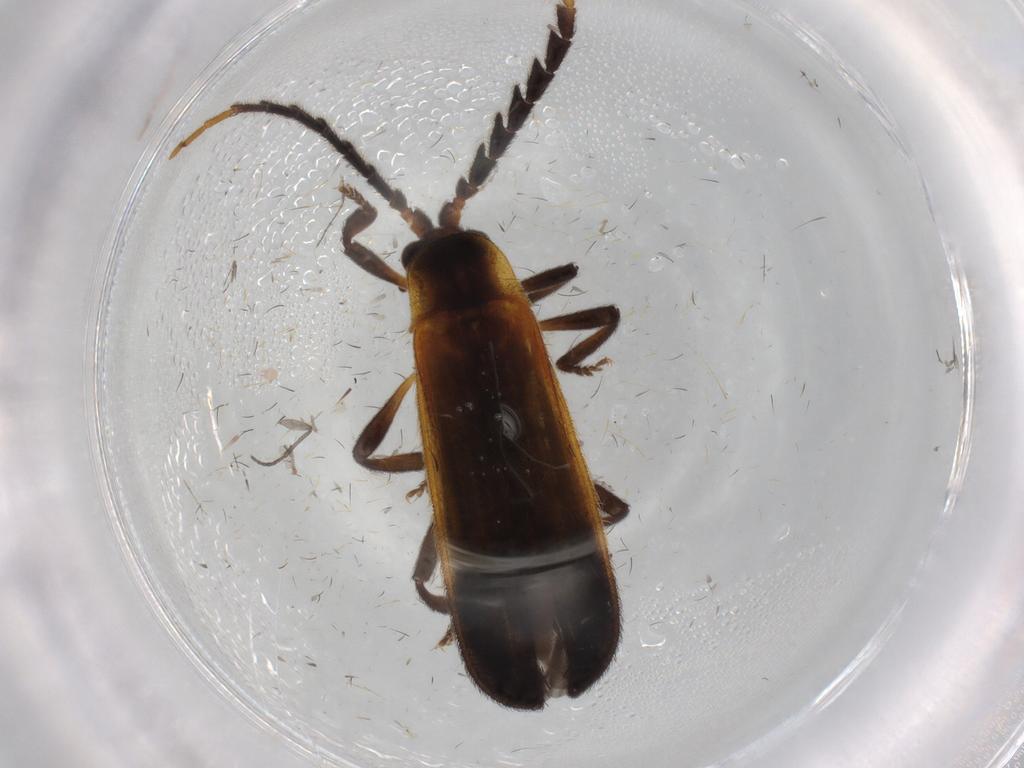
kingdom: Animalia
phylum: Arthropoda
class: Insecta
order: Coleoptera
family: Lycidae
